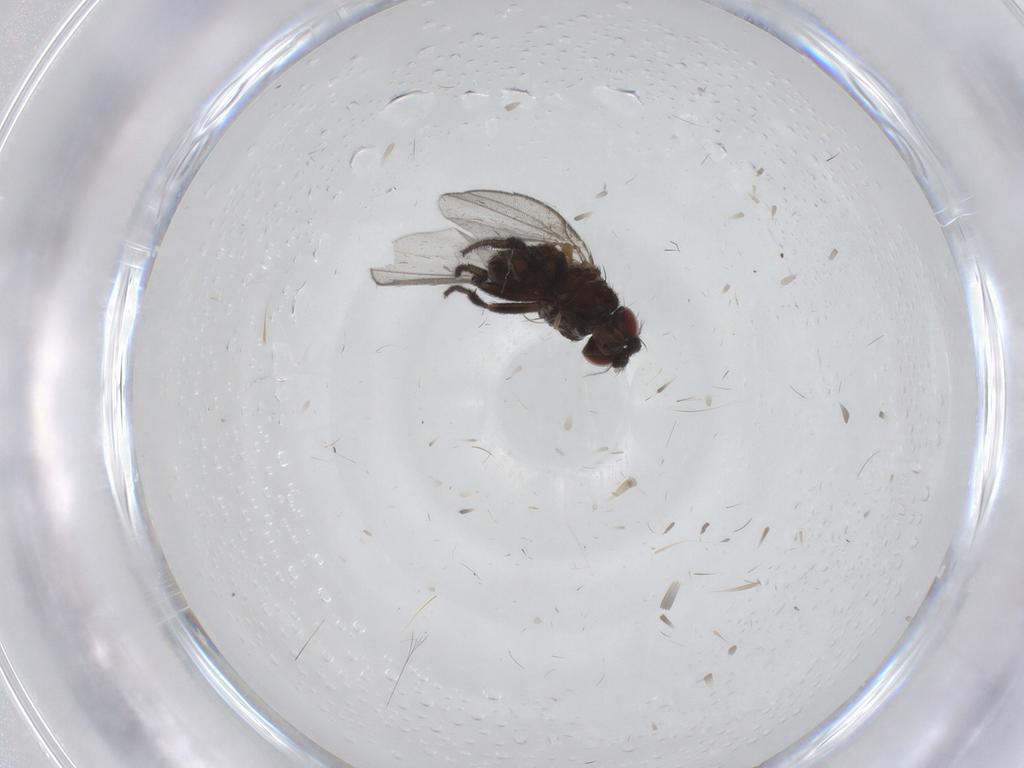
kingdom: Animalia
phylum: Arthropoda
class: Insecta
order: Diptera
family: Milichiidae
